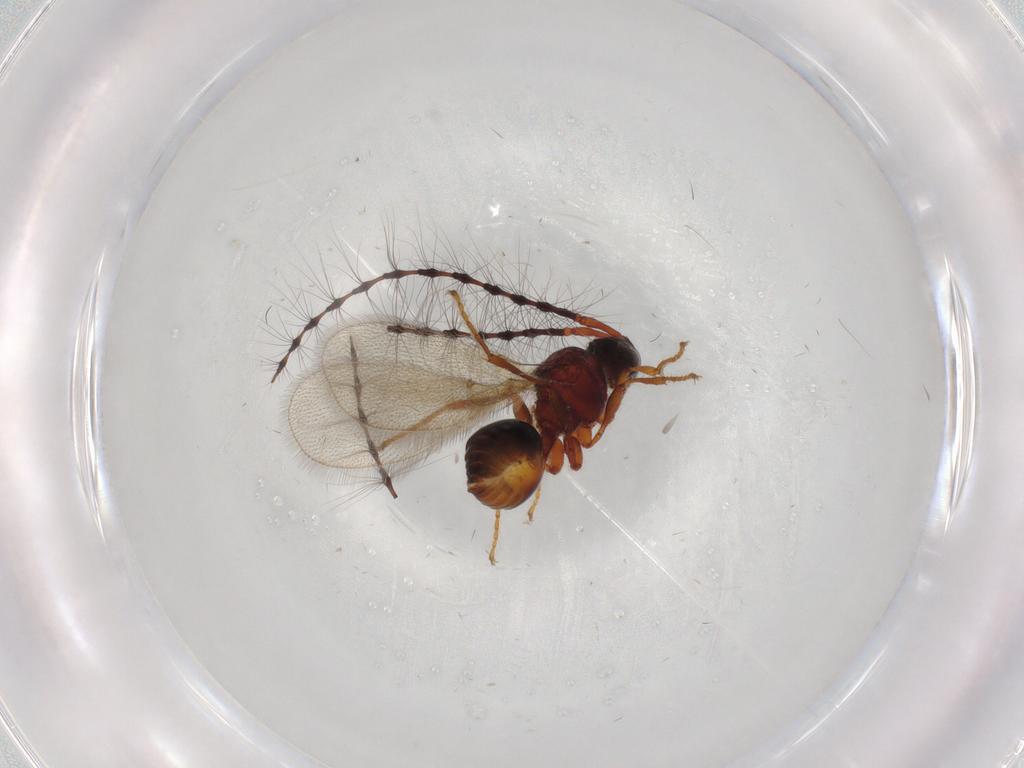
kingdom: Animalia
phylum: Arthropoda
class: Insecta
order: Hymenoptera
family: Diapriidae
